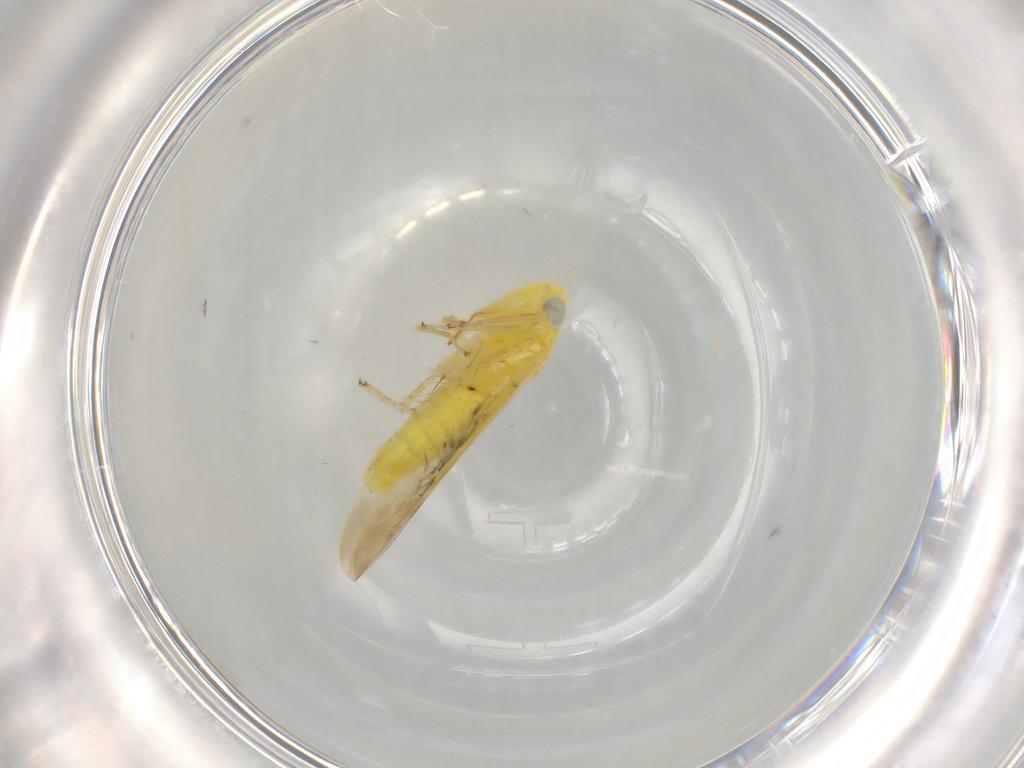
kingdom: Animalia
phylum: Arthropoda
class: Insecta
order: Hemiptera
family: Cicadellidae
